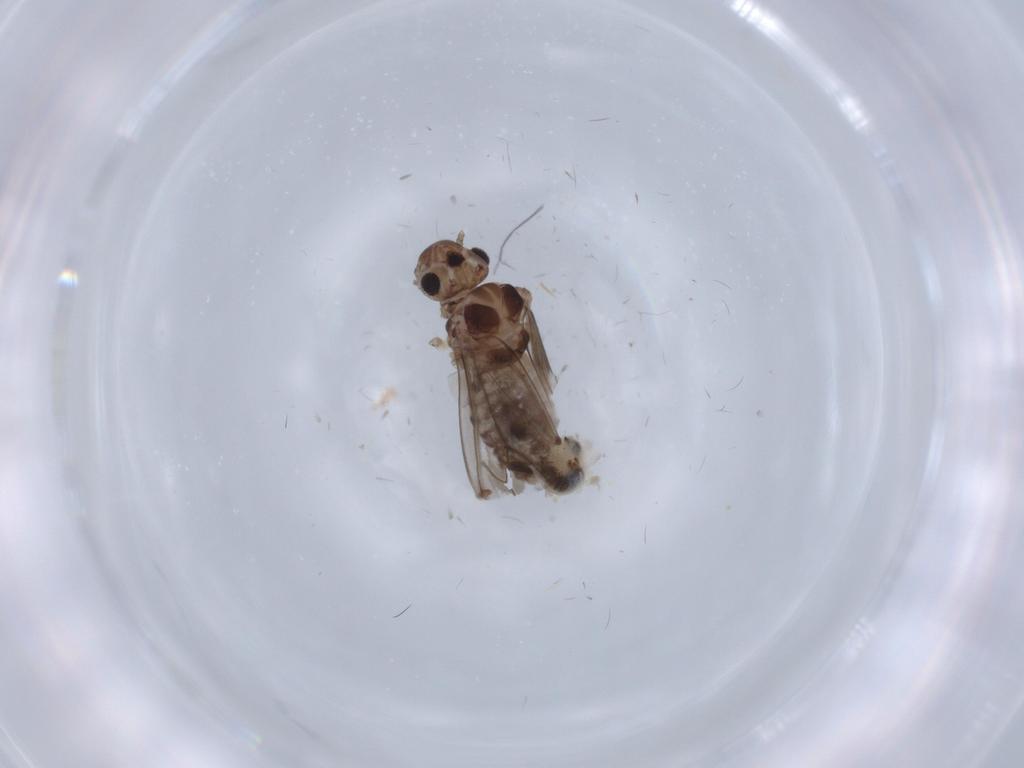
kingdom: Animalia
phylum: Arthropoda
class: Insecta
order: Psocodea
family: Peripsocidae
